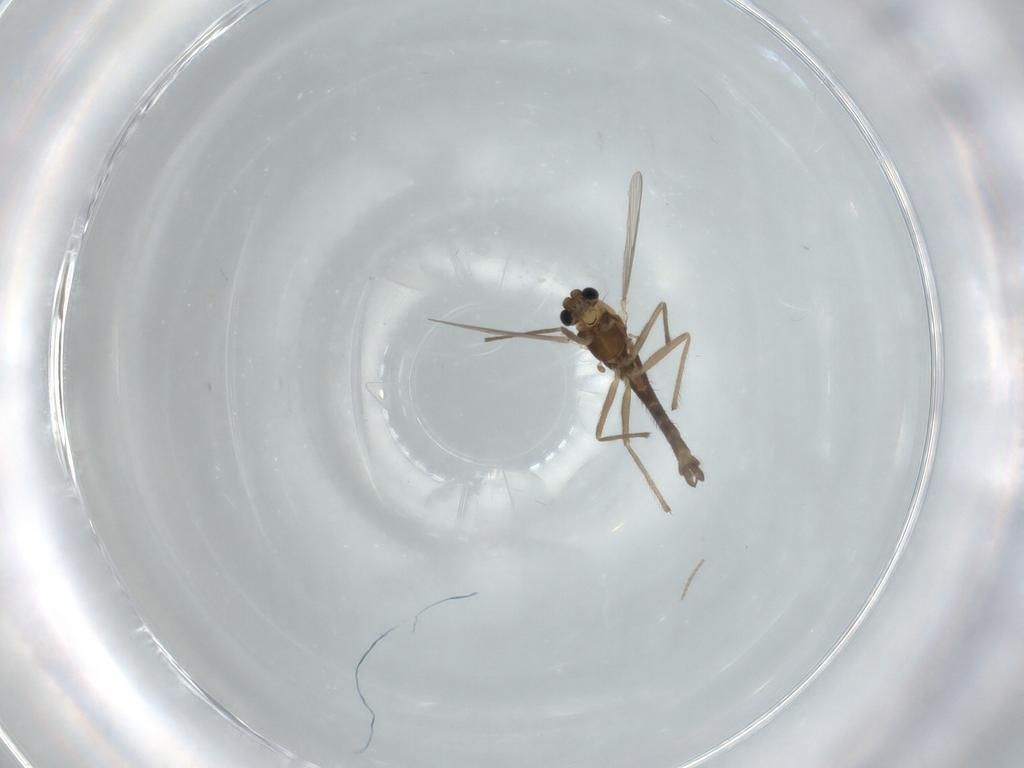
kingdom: Animalia
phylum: Arthropoda
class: Insecta
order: Diptera
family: Chironomidae
